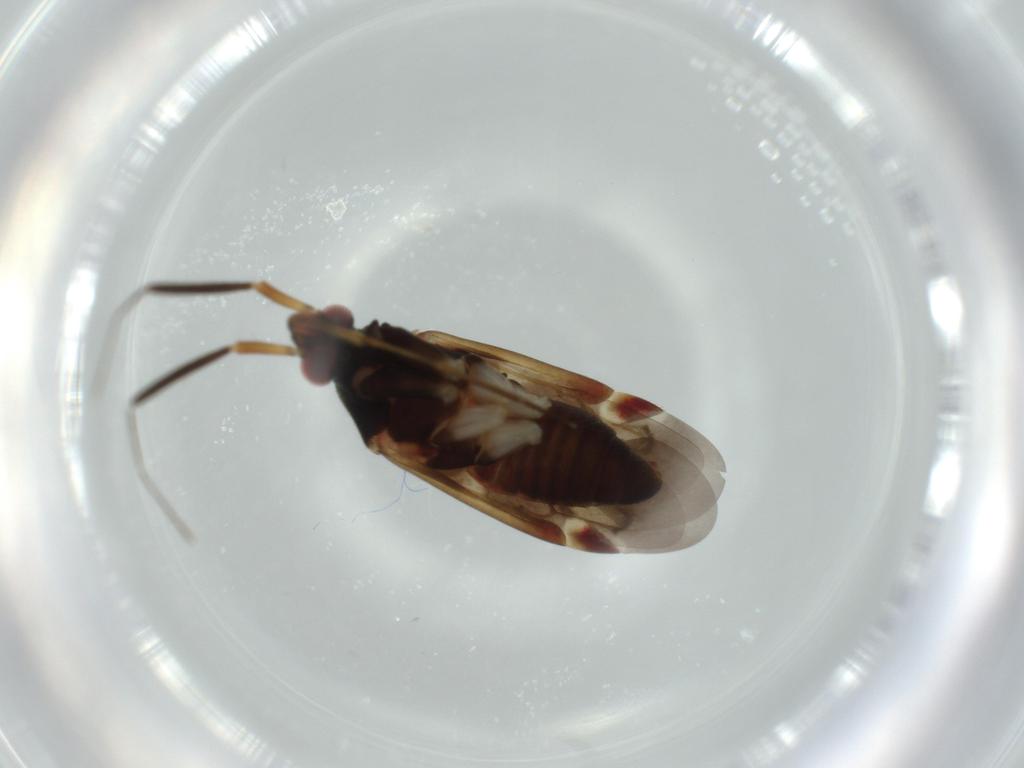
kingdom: Animalia
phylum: Arthropoda
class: Insecta
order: Hemiptera
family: Miridae
